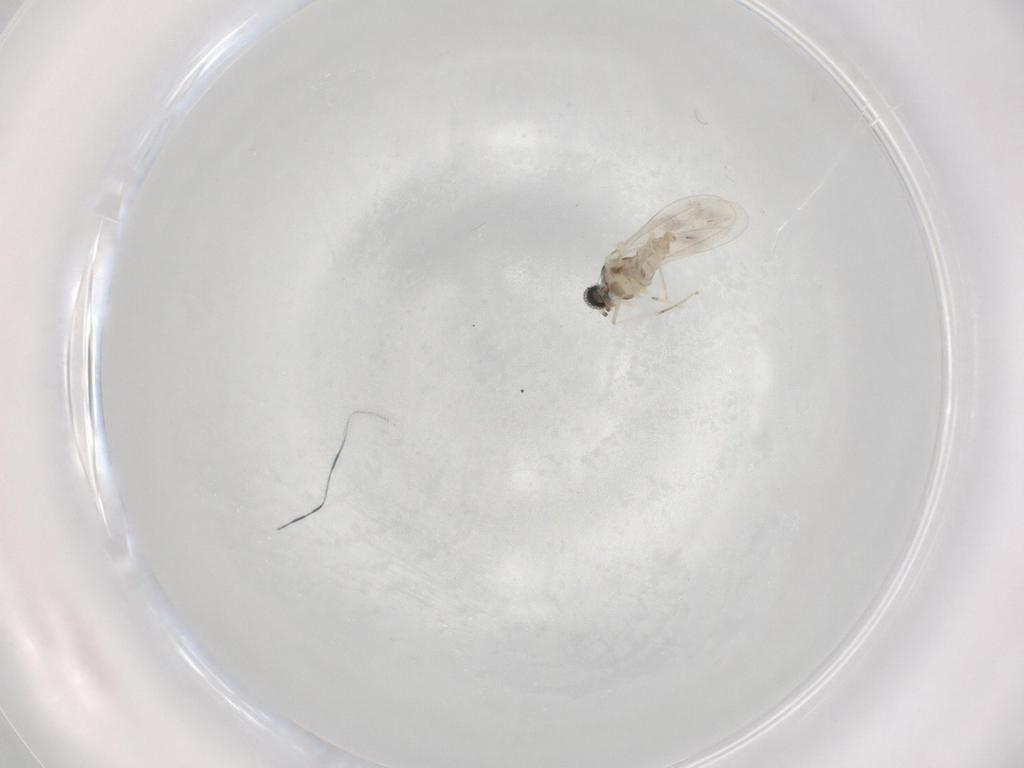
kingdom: Animalia
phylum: Arthropoda
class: Insecta
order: Diptera
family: Cecidomyiidae
